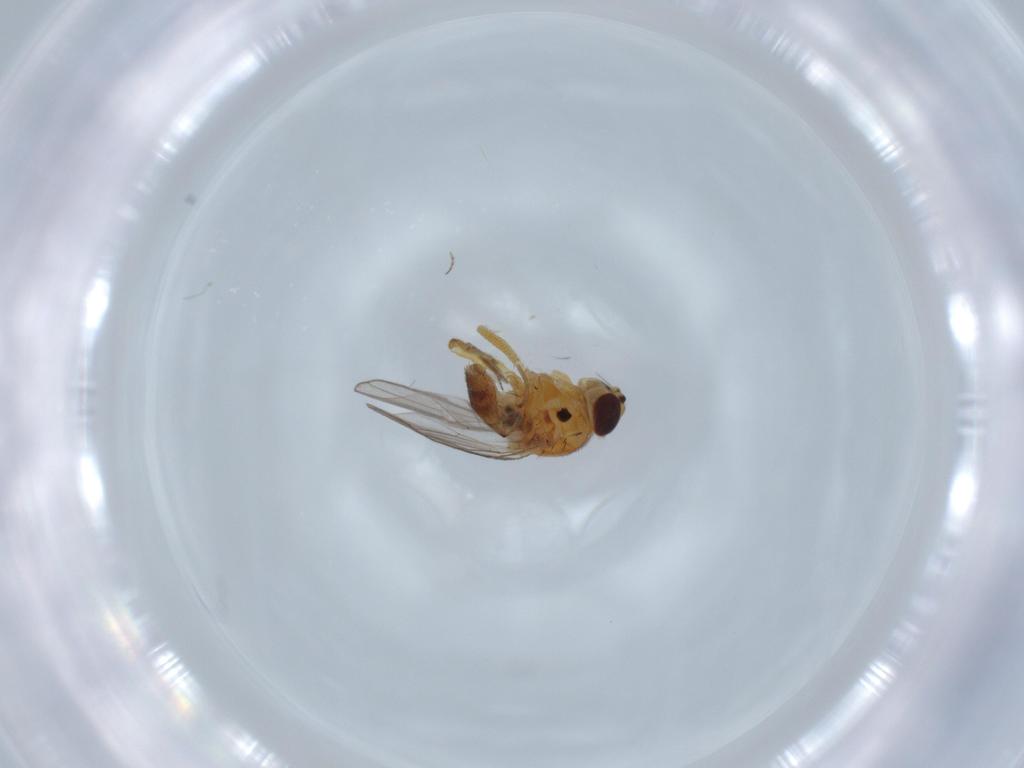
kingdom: Animalia
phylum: Arthropoda
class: Insecta
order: Diptera
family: Chloropidae
